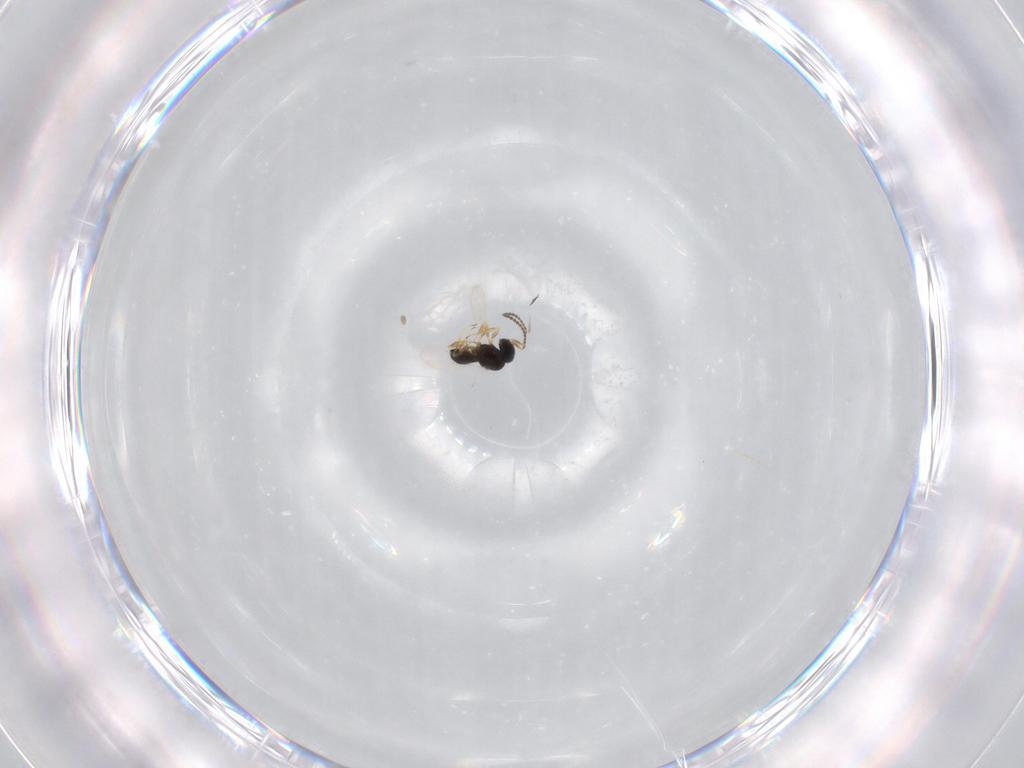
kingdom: Animalia
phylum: Arthropoda
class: Insecta
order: Hymenoptera
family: Scelionidae
